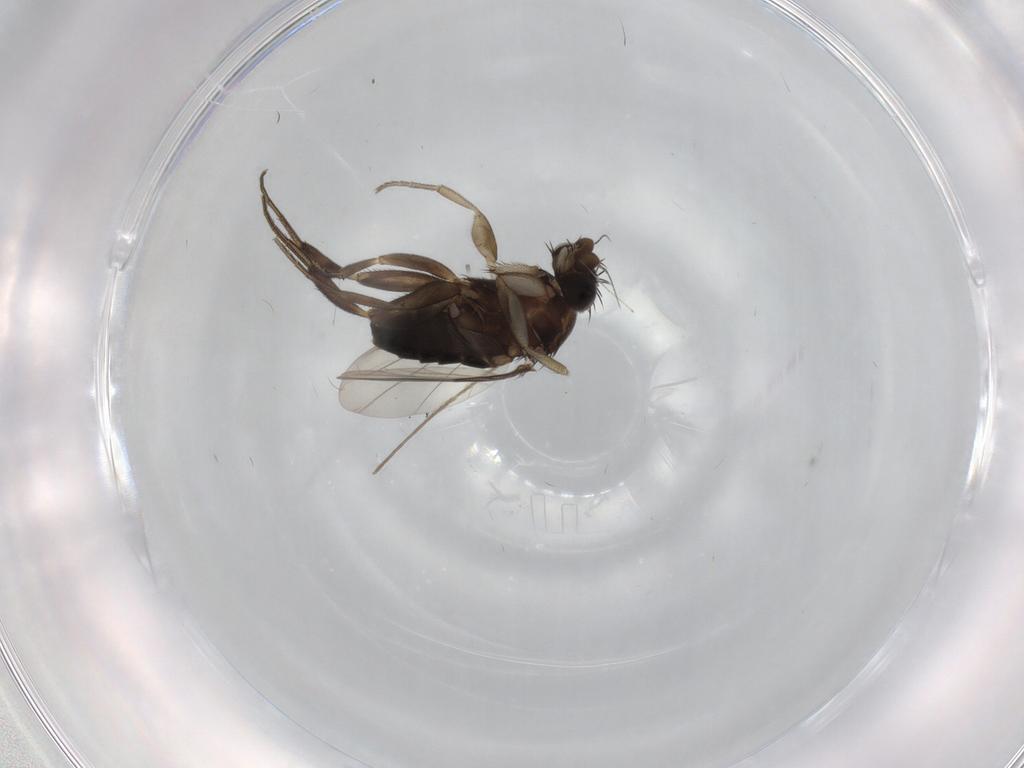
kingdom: Animalia
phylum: Arthropoda
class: Insecta
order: Diptera
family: Phoridae
